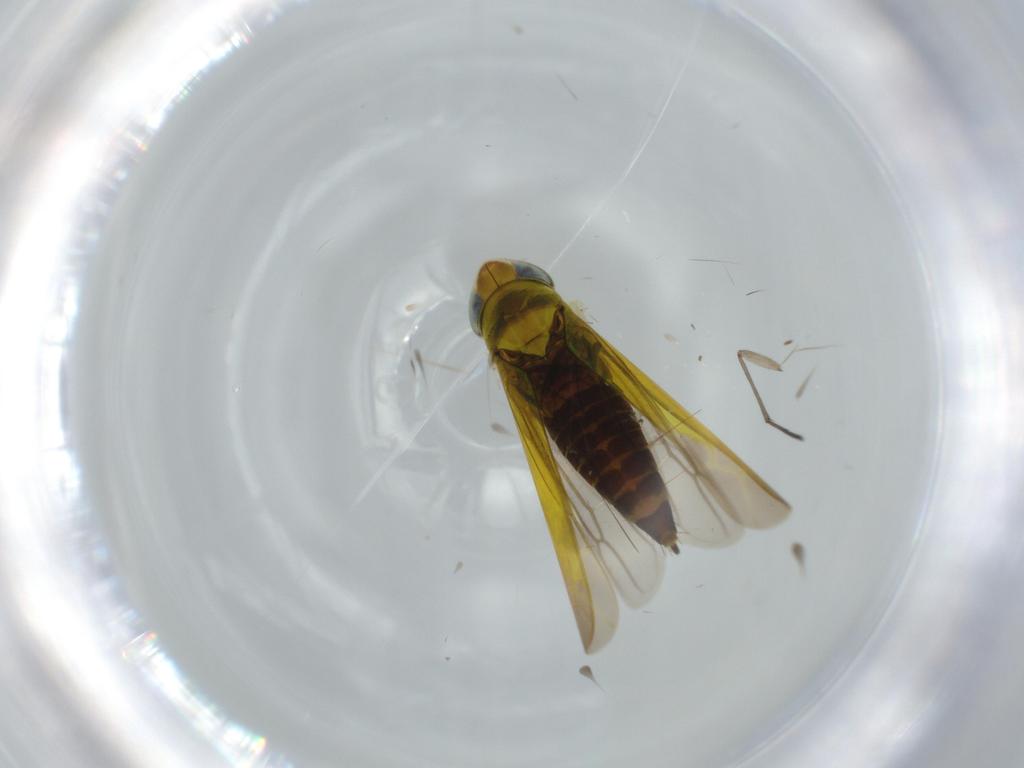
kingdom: Animalia
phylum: Arthropoda
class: Insecta
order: Hemiptera
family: Cicadellidae
